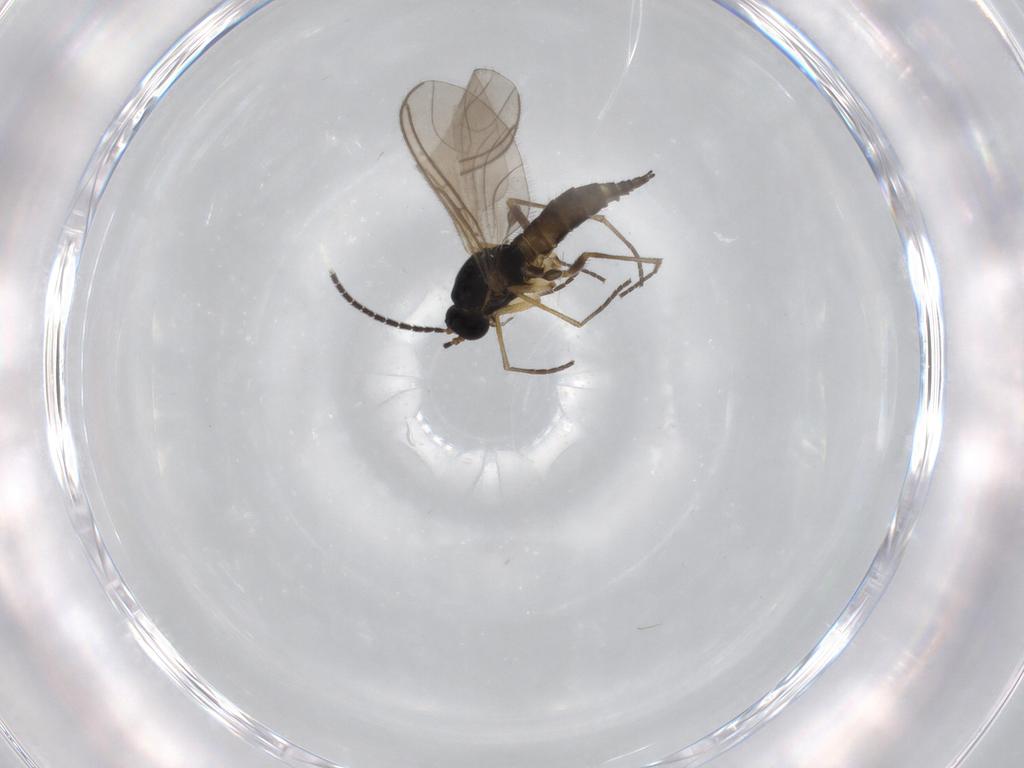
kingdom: Animalia
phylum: Arthropoda
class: Insecta
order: Diptera
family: Sciaridae
